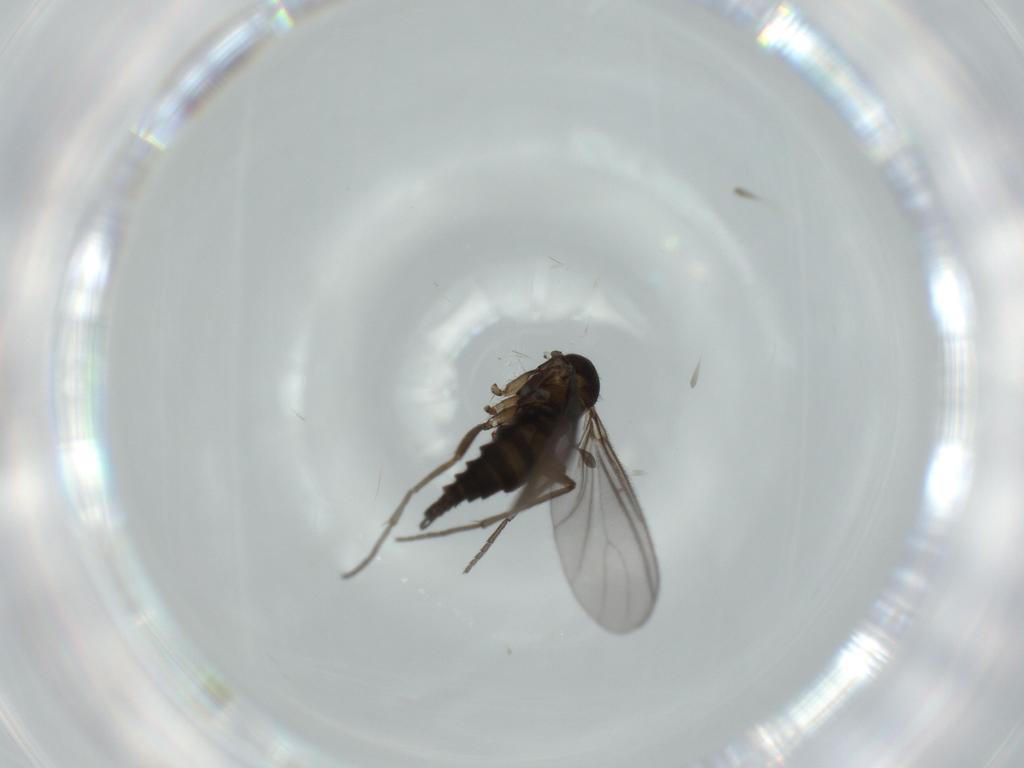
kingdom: Animalia
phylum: Arthropoda
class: Insecta
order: Diptera
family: Sciaridae
